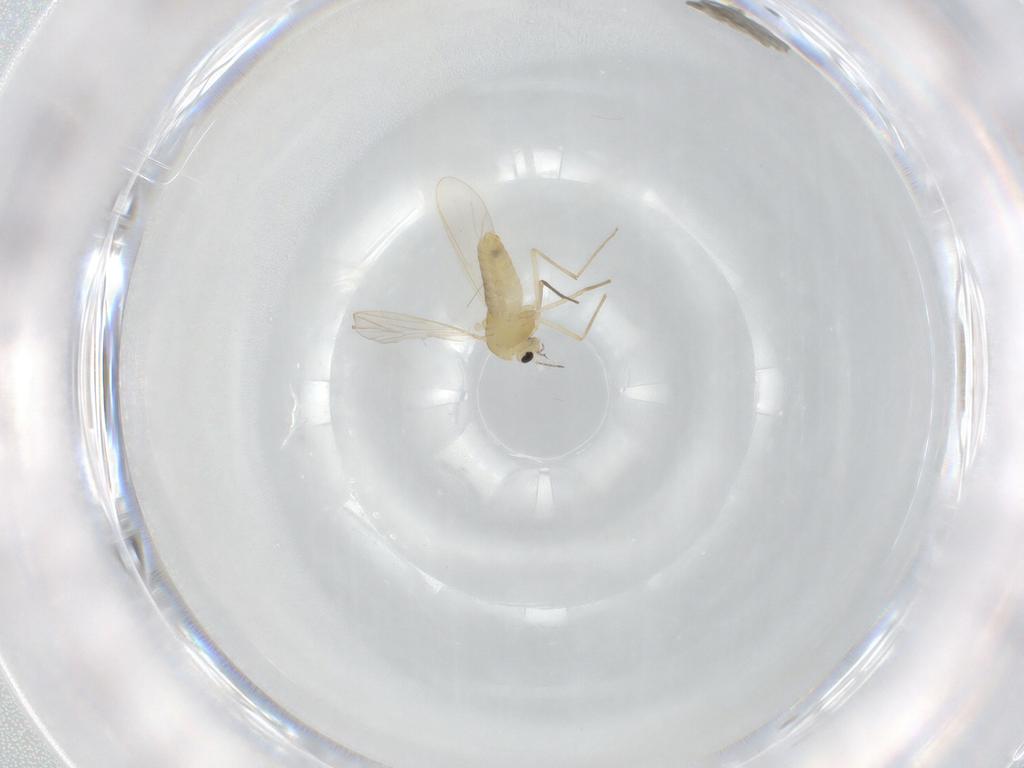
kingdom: Animalia
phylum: Arthropoda
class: Insecta
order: Diptera
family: Chironomidae
